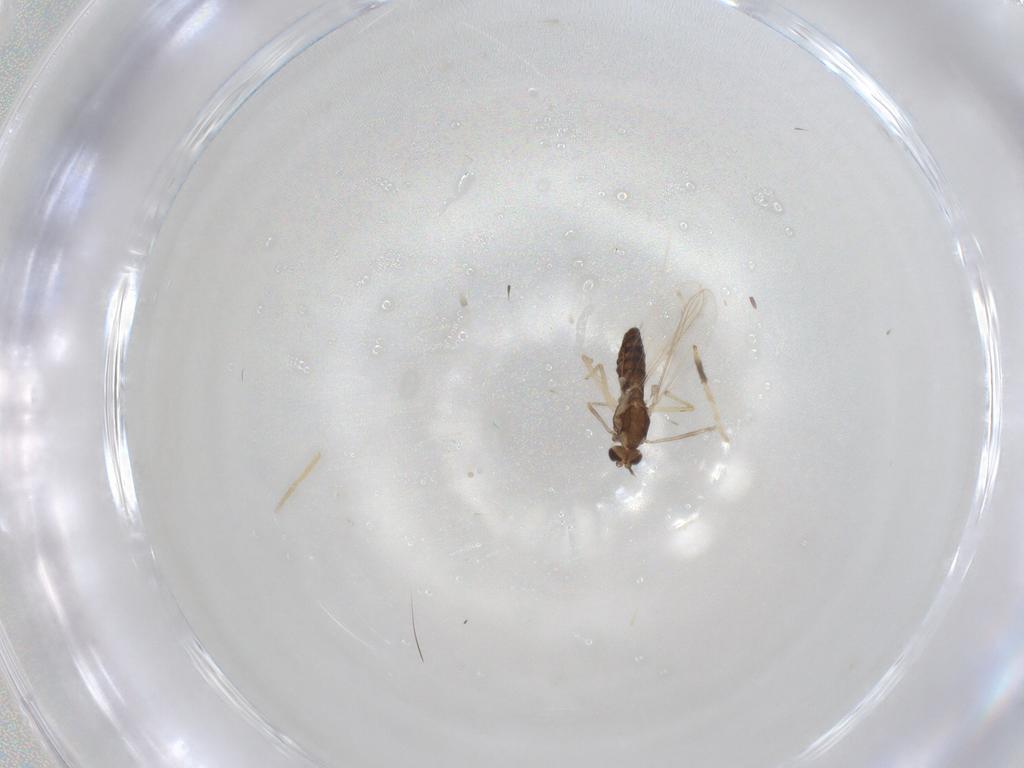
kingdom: Animalia
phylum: Arthropoda
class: Insecta
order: Diptera
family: Chironomidae
